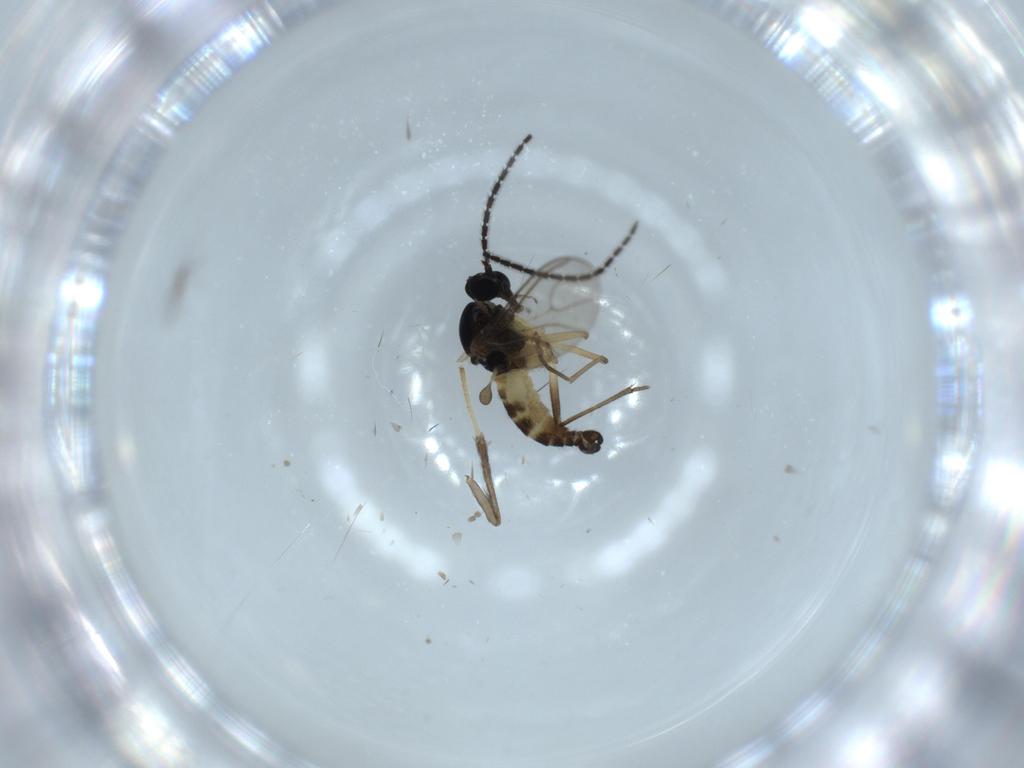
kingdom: Animalia
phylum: Arthropoda
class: Insecta
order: Diptera
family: Sciaridae
